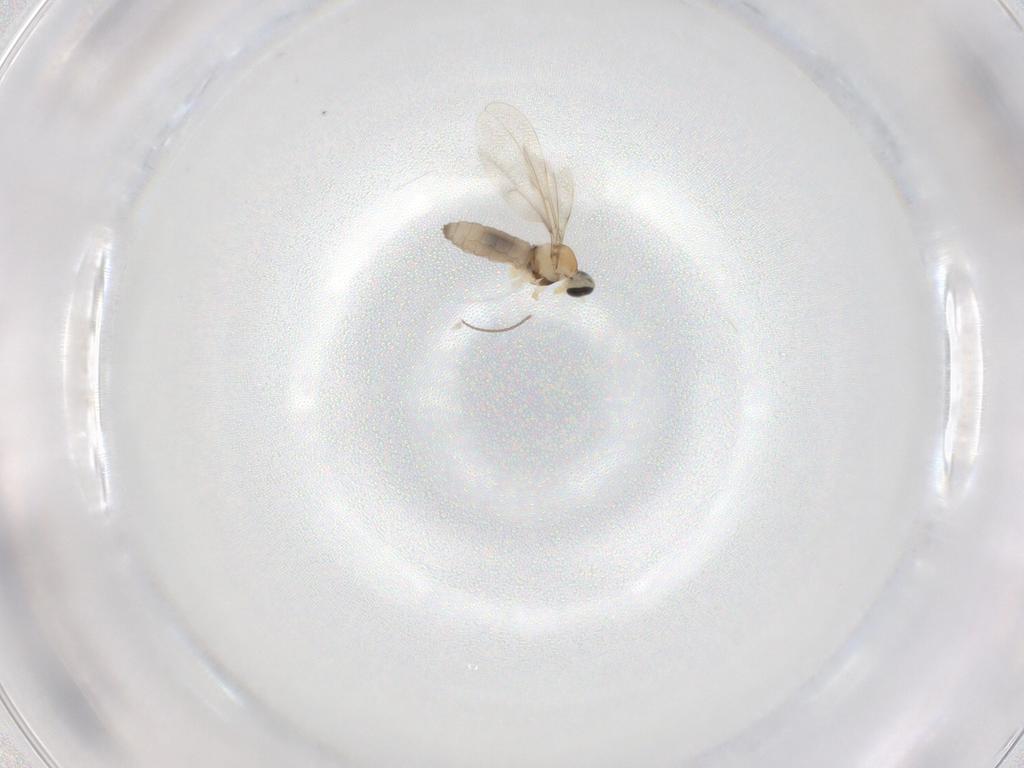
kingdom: Animalia
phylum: Arthropoda
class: Insecta
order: Diptera
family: Cecidomyiidae
